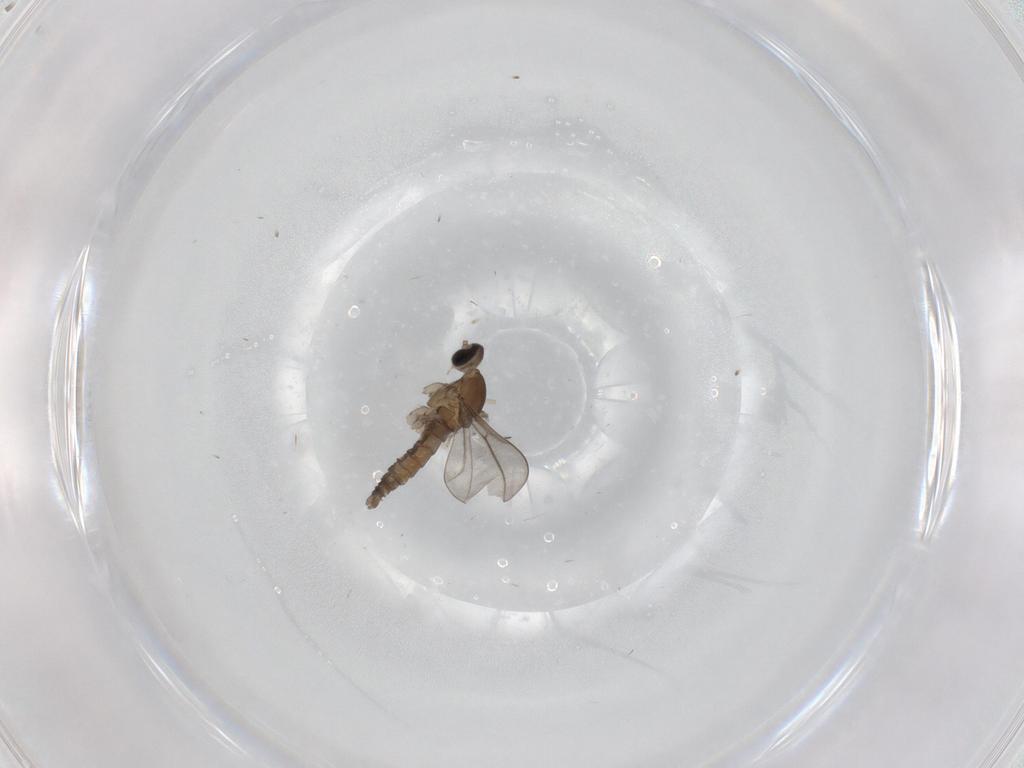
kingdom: Animalia
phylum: Arthropoda
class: Insecta
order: Diptera
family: Cecidomyiidae
